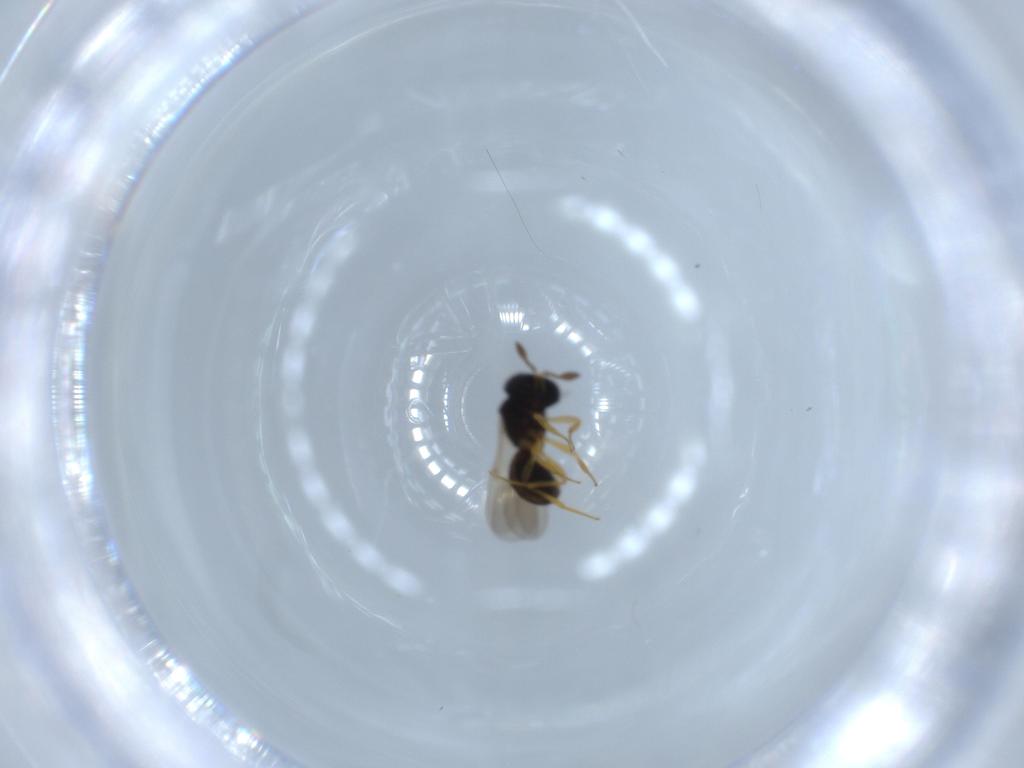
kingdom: Animalia
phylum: Arthropoda
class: Insecta
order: Hymenoptera
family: Scelionidae
